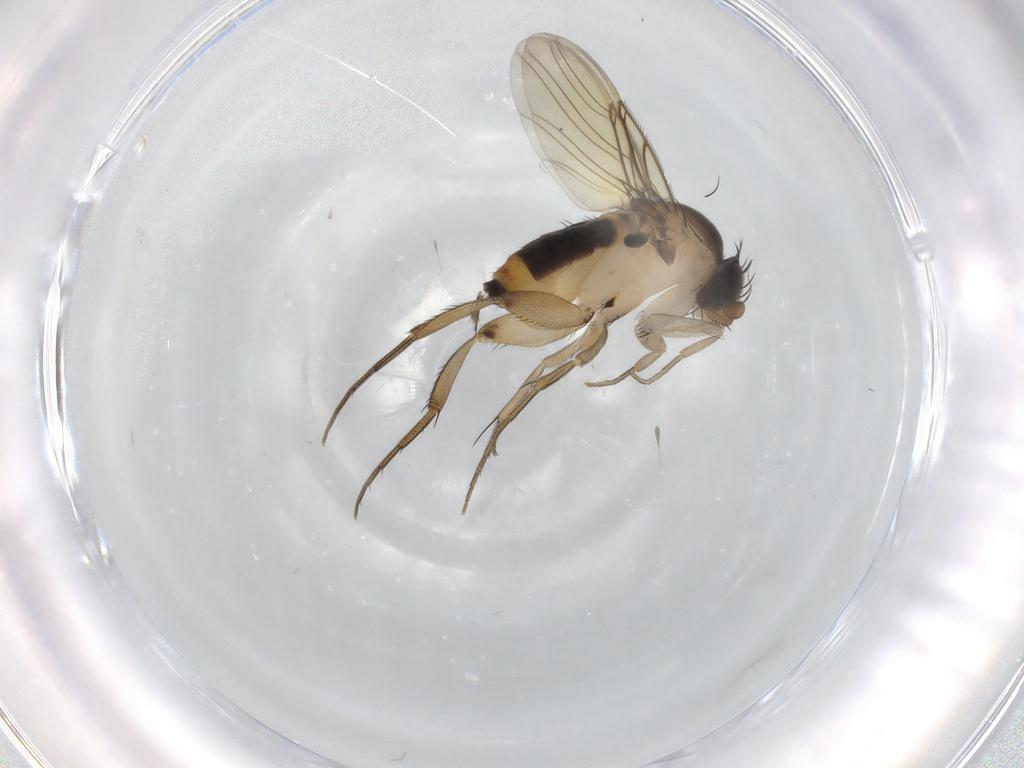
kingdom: Animalia
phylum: Arthropoda
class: Insecta
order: Diptera
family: Phoridae
